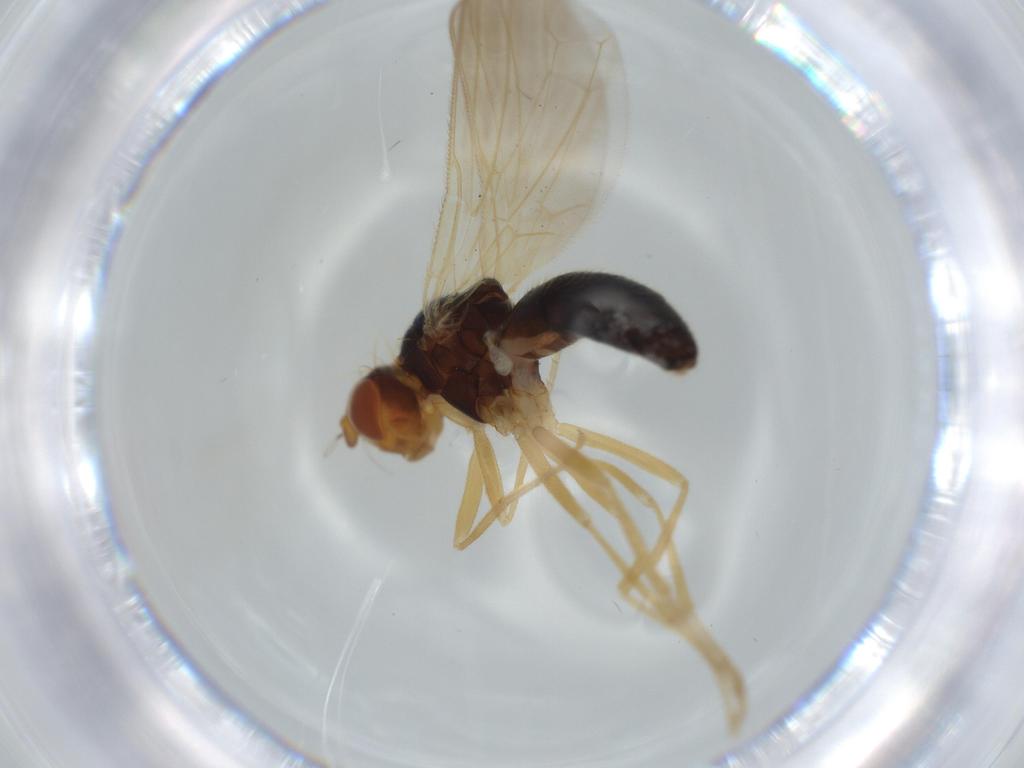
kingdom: Animalia
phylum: Arthropoda
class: Insecta
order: Diptera
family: Anisopodidae
